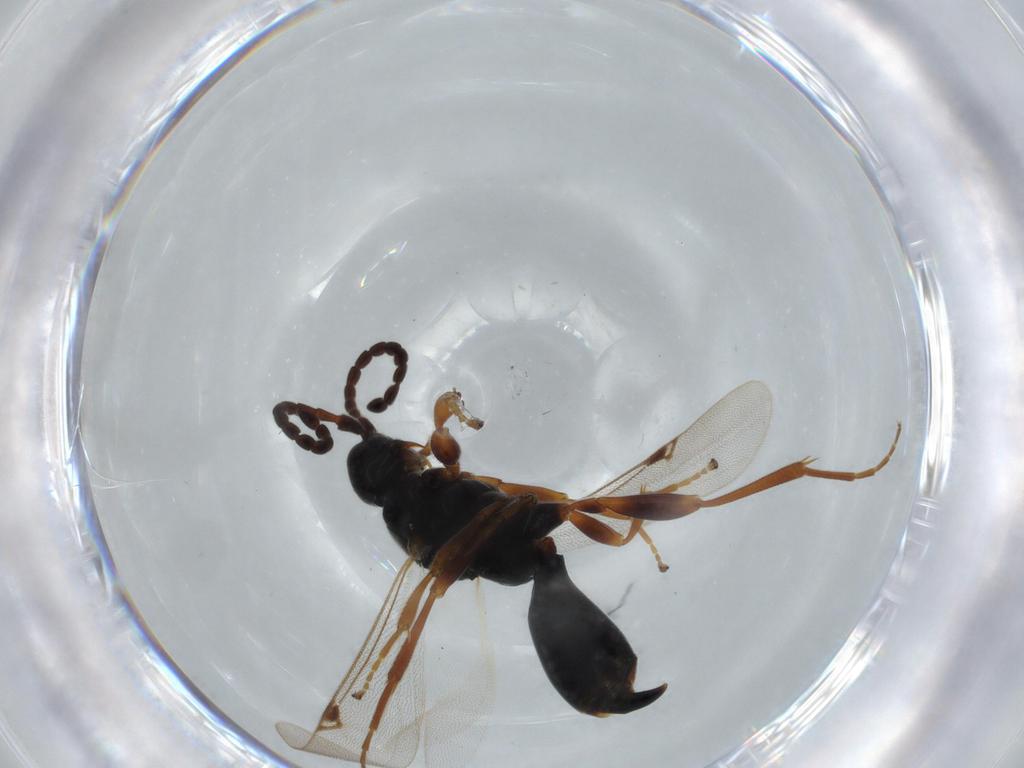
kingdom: Animalia
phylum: Arthropoda
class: Insecta
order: Hymenoptera
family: Proctotrupidae
